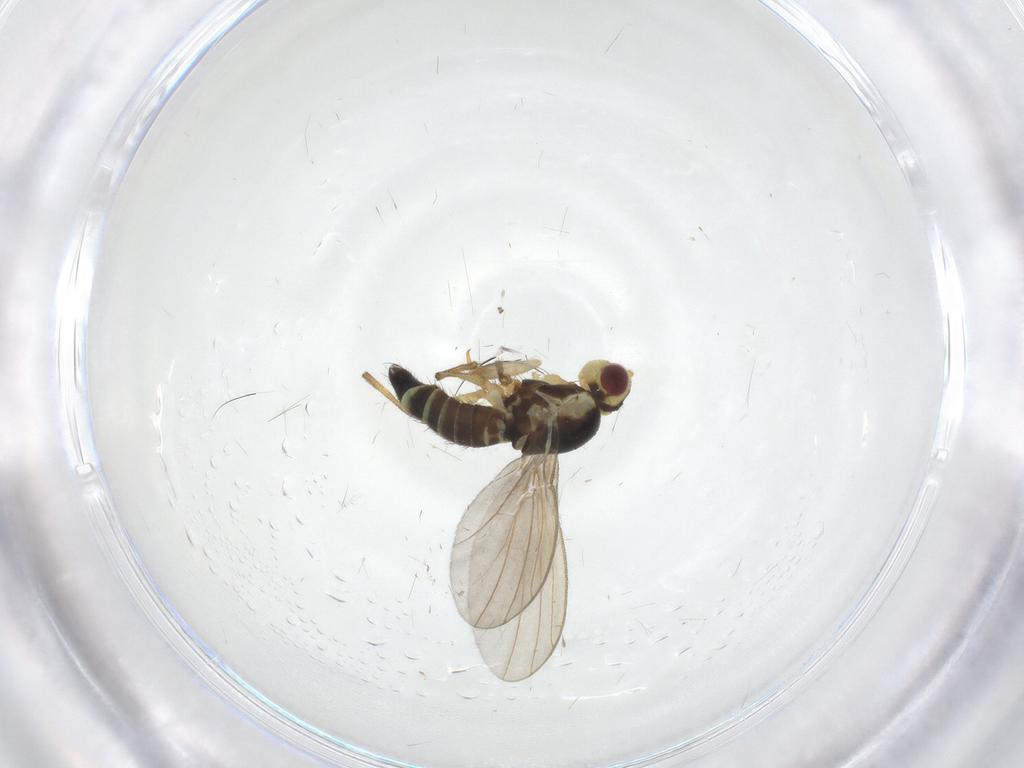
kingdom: Animalia
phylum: Arthropoda
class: Insecta
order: Diptera
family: Agromyzidae
